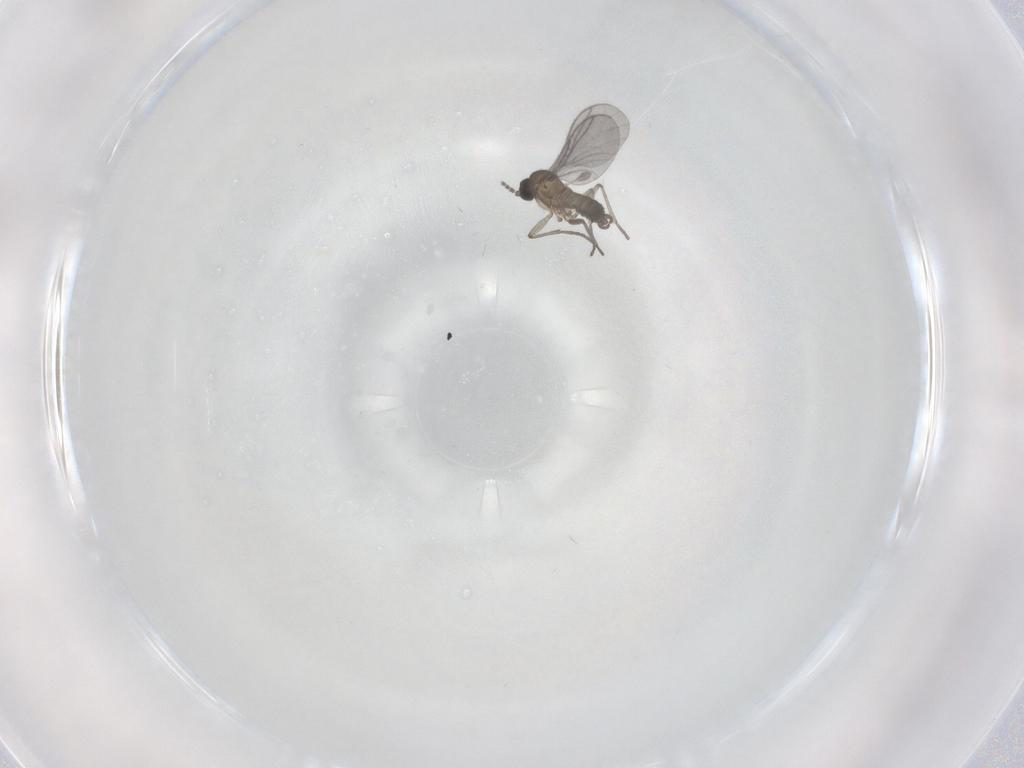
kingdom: Animalia
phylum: Arthropoda
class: Insecta
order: Diptera
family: Sciaridae
